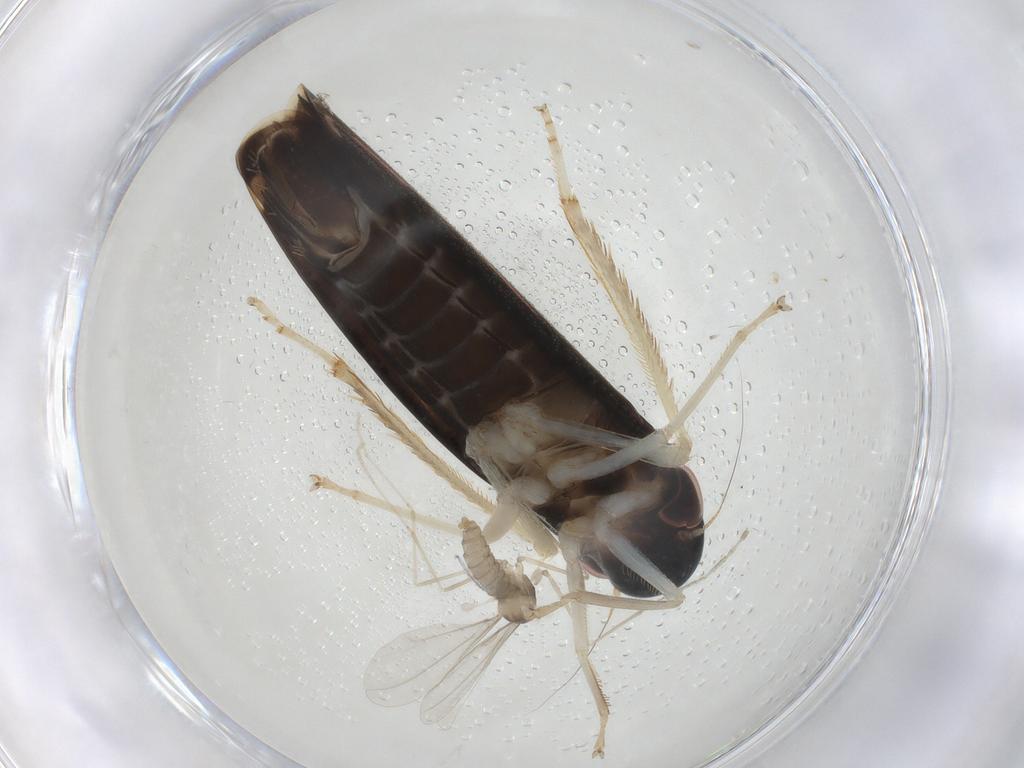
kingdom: Animalia
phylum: Arthropoda
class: Insecta
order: Hemiptera
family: Cicadellidae
